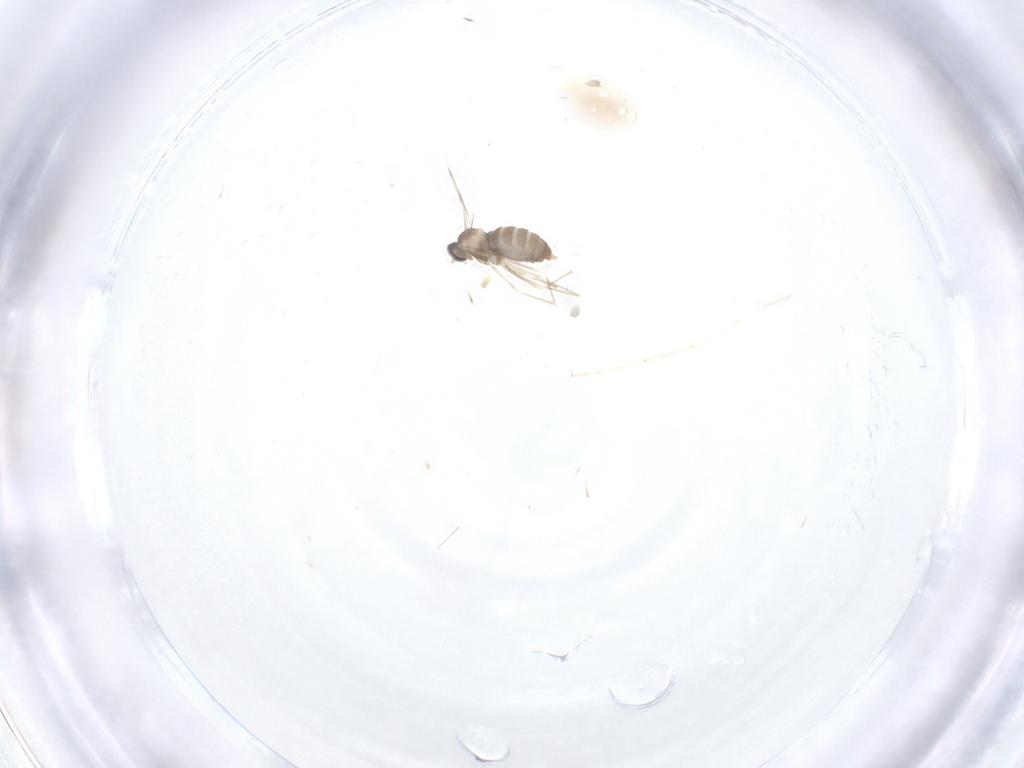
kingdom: Animalia
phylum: Arthropoda
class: Insecta
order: Diptera
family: Cecidomyiidae
